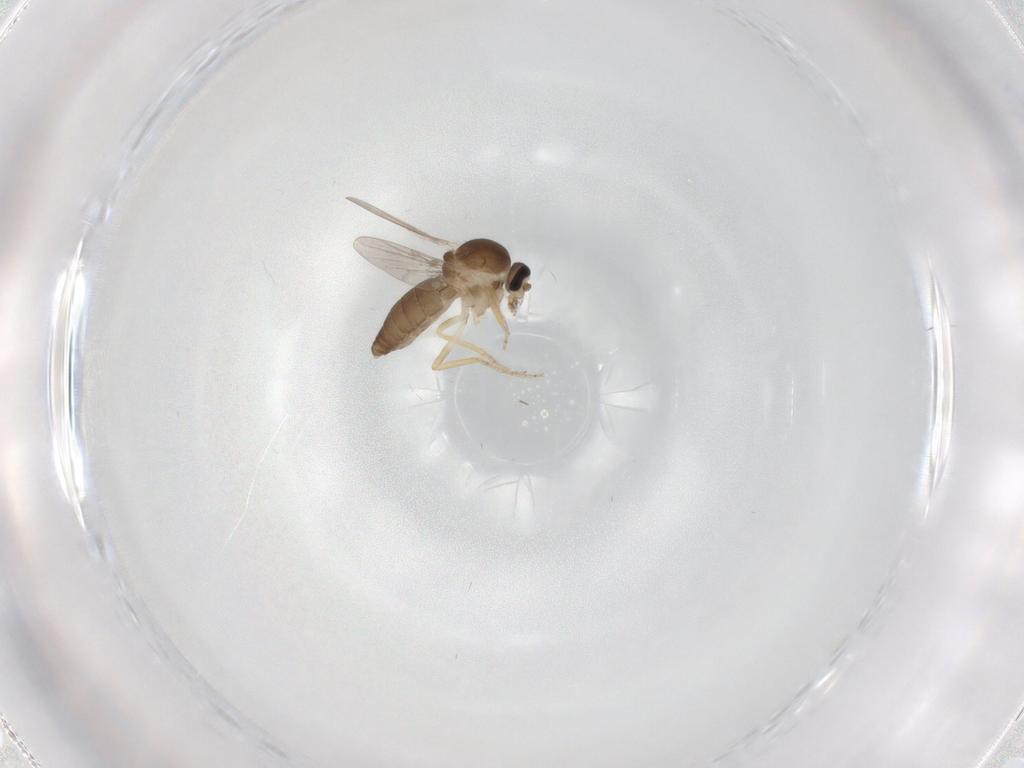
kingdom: Animalia
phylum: Arthropoda
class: Insecta
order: Diptera
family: Ceratopogonidae
